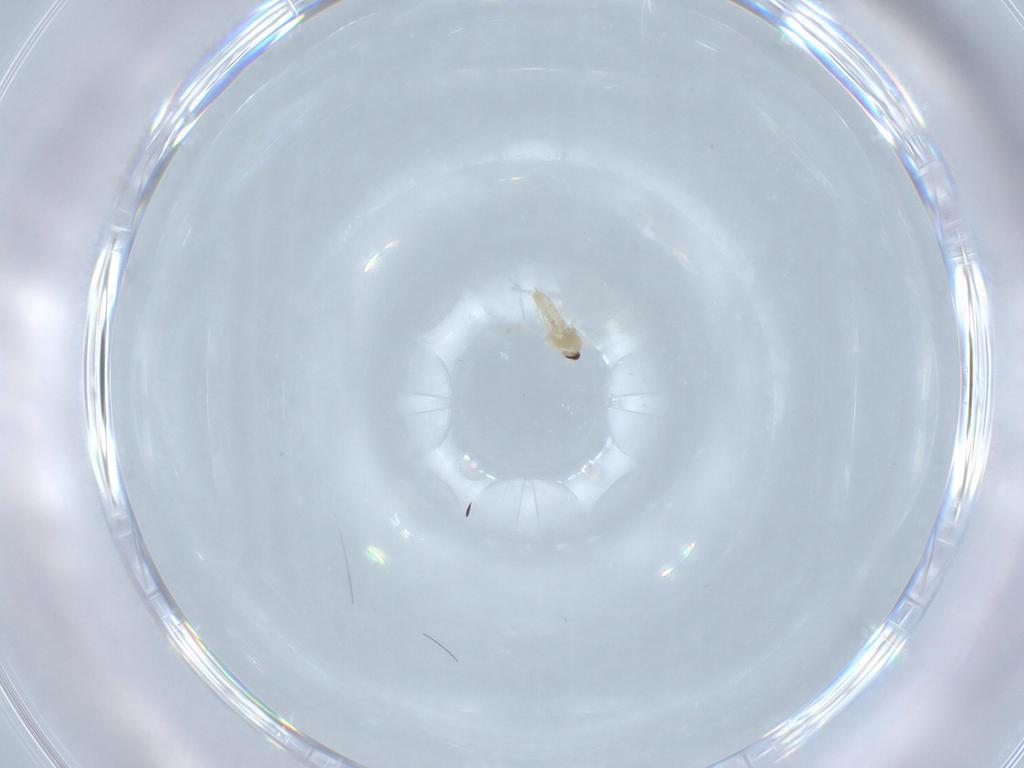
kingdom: Animalia
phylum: Arthropoda
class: Insecta
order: Diptera
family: Cecidomyiidae
